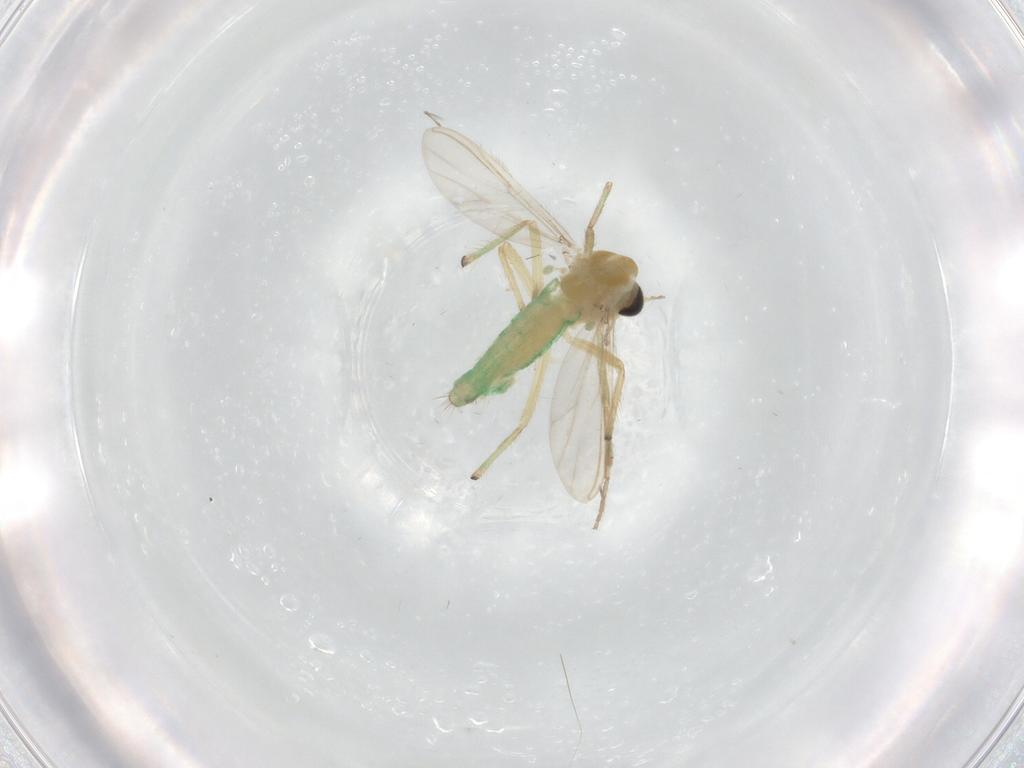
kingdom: Animalia
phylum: Arthropoda
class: Insecta
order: Diptera
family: Chironomidae
